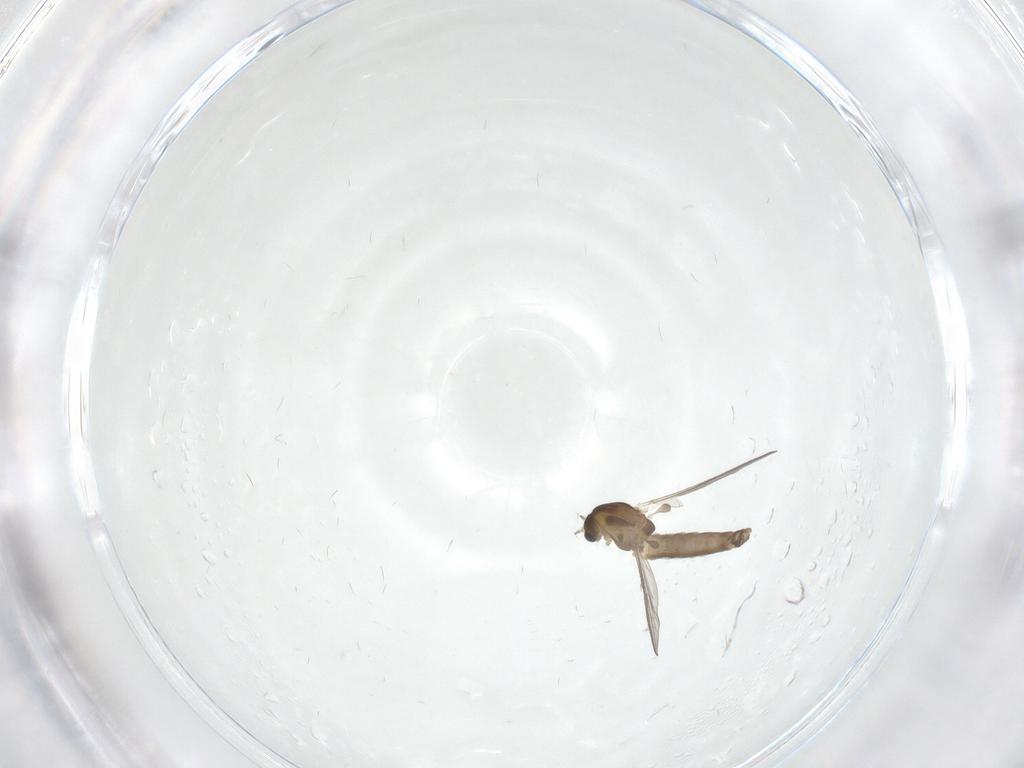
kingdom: Animalia
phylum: Arthropoda
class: Insecta
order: Diptera
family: Chironomidae
